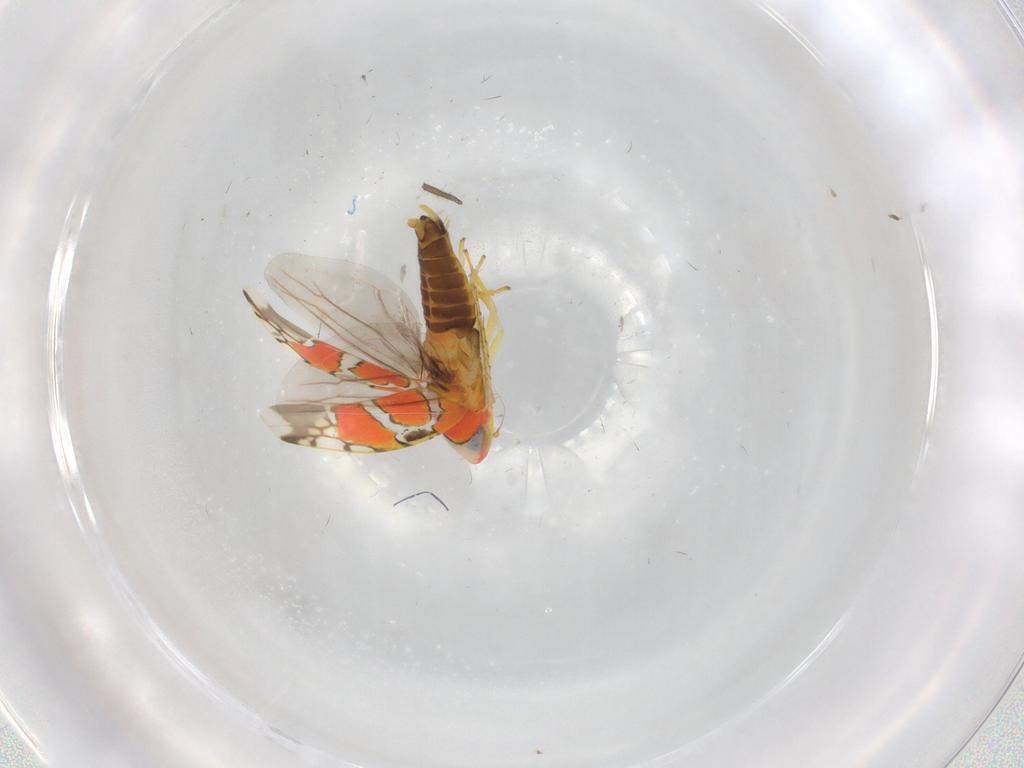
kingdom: Animalia
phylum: Arthropoda
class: Insecta
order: Hemiptera
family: Cicadellidae
